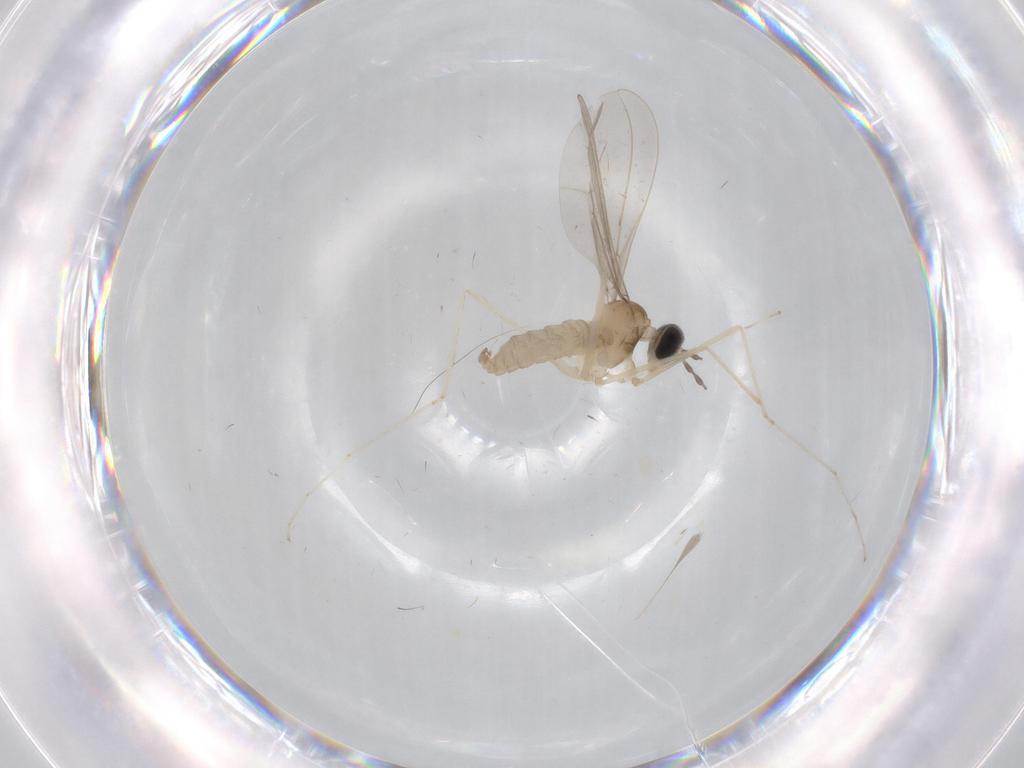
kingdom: Animalia
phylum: Arthropoda
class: Insecta
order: Diptera
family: Cecidomyiidae
